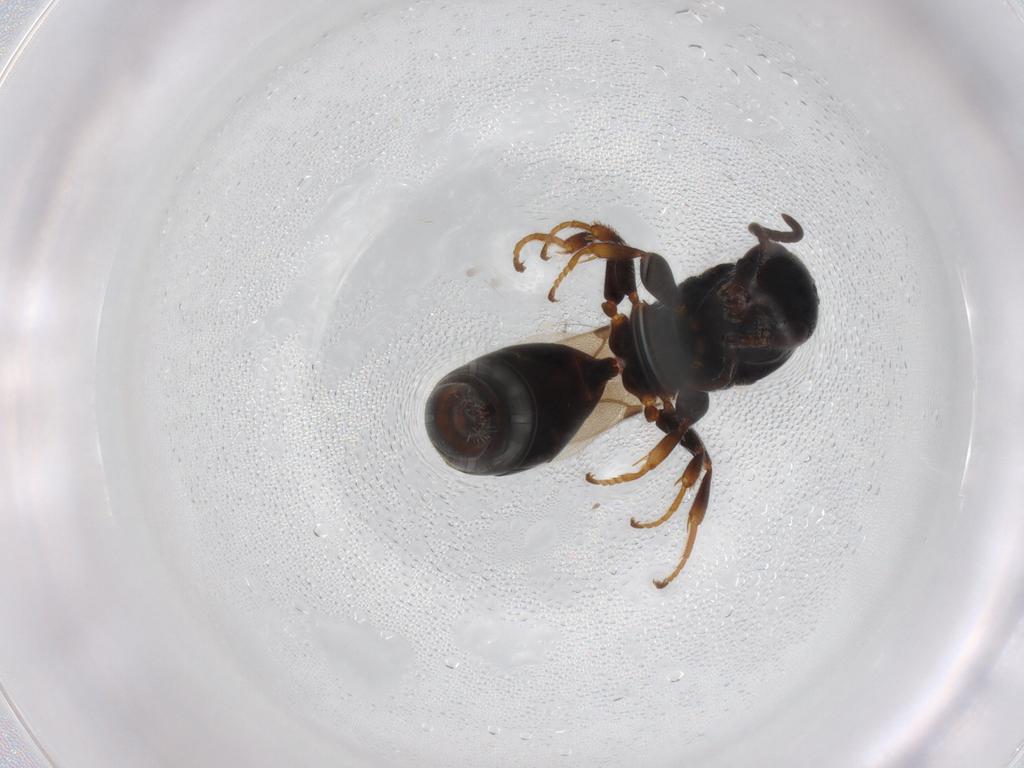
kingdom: Animalia
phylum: Arthropoda
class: Insecta
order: Hymenoptera
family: Bethylidae
